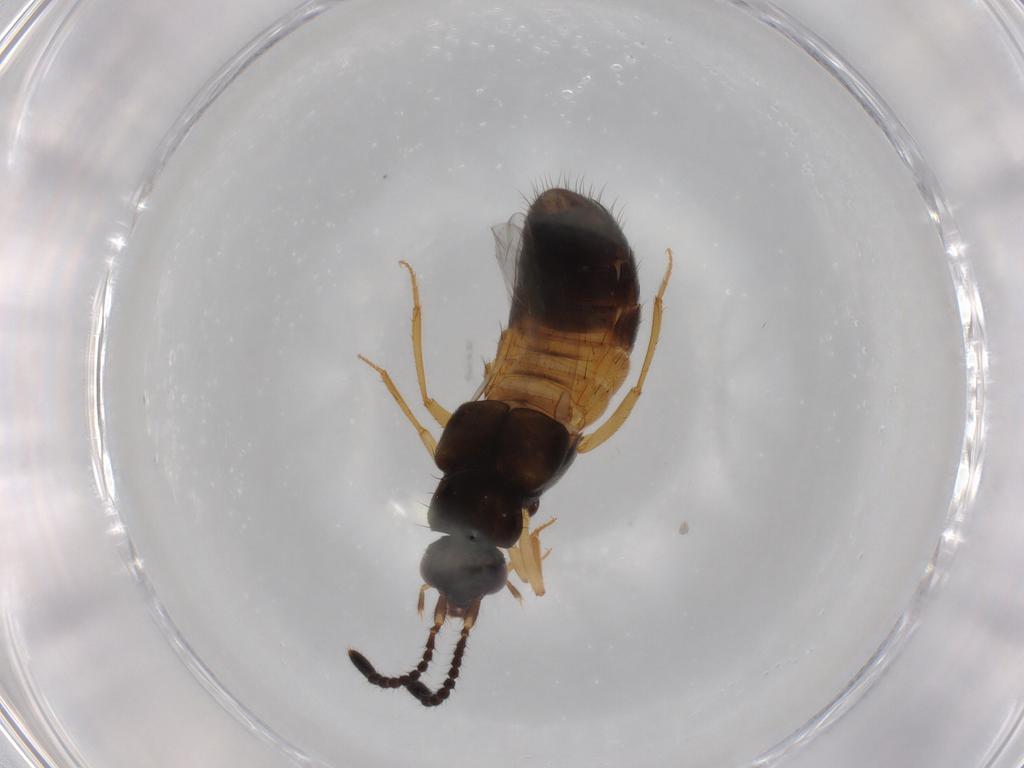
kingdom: Animalia
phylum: Arthropoda
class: Insecta
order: Coleoptera
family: Staphylinidae
